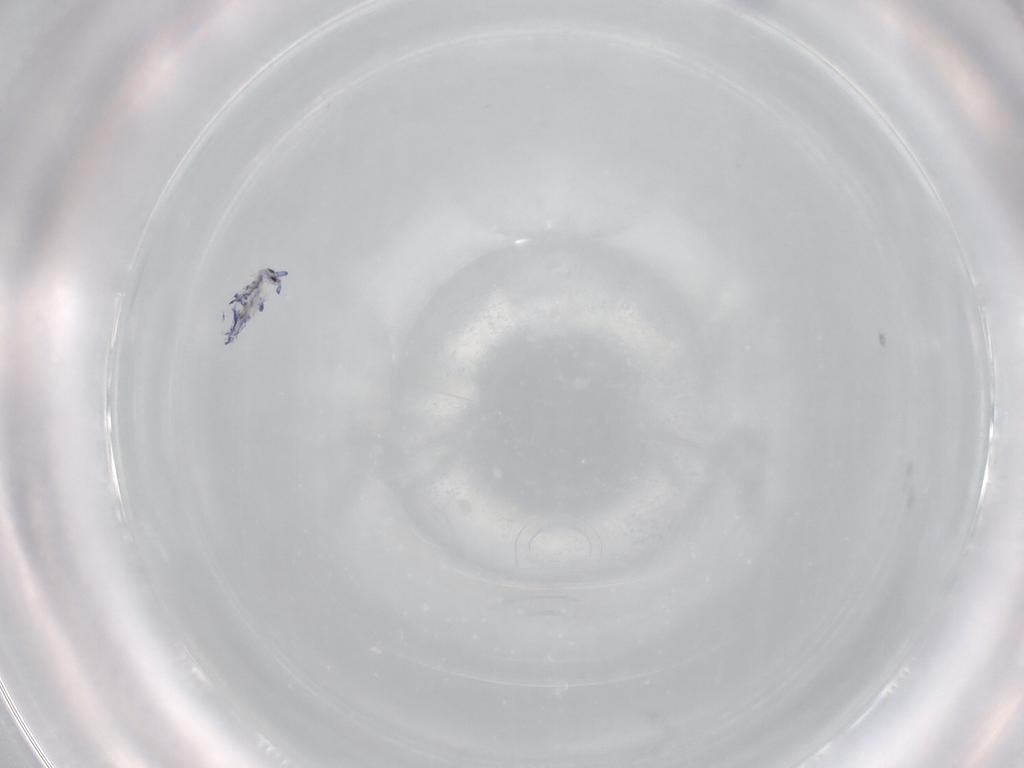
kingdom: Animalia
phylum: Arthropoda
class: Collembola
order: Entomobryomorpha
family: Entomobryidae
